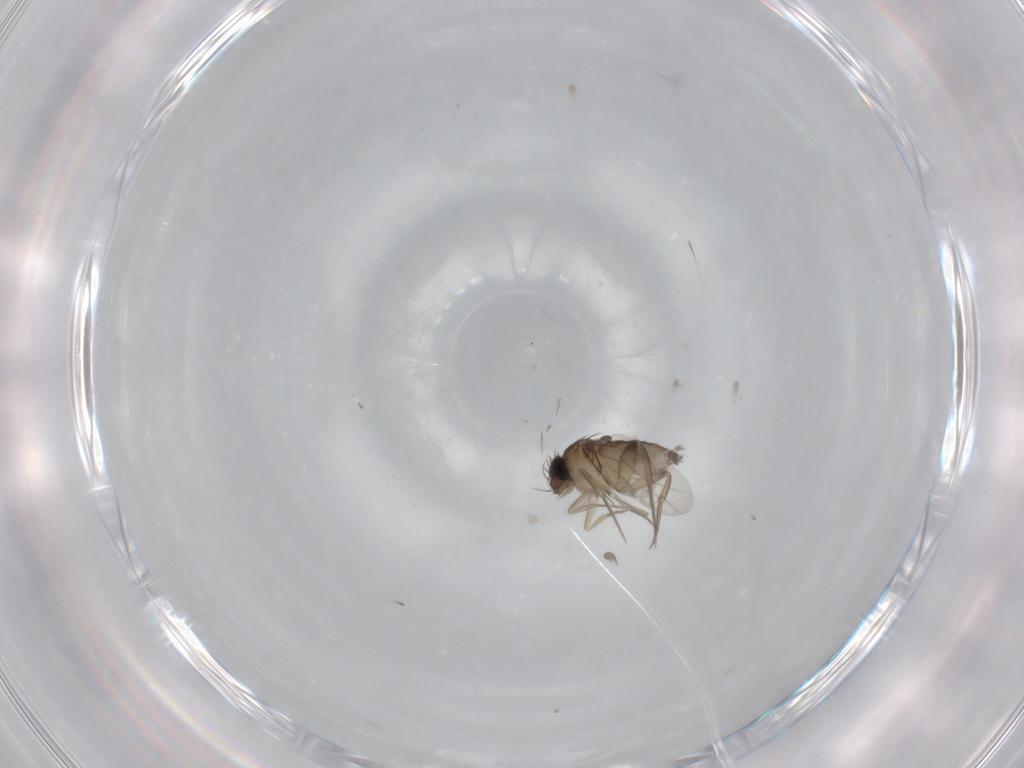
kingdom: Animalia
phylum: Arthropoda
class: Insecta
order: Diptera
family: Phoridae
